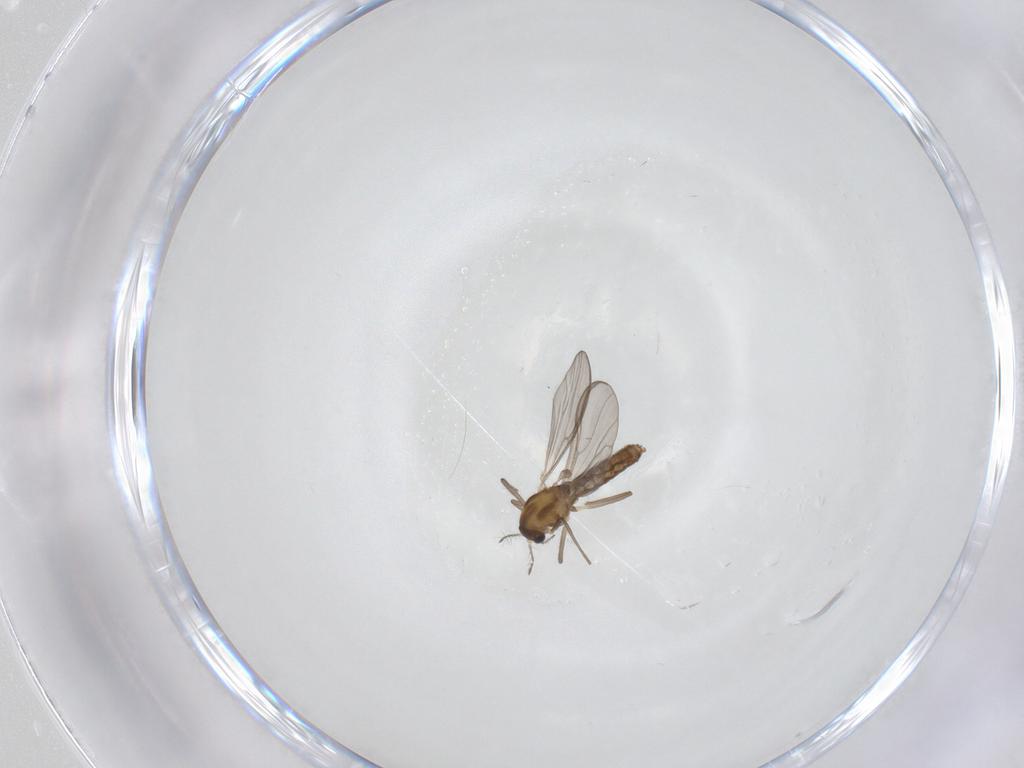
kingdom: Animalia
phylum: Arthropoda
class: Insecta
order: Diptera
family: Chironomidae
